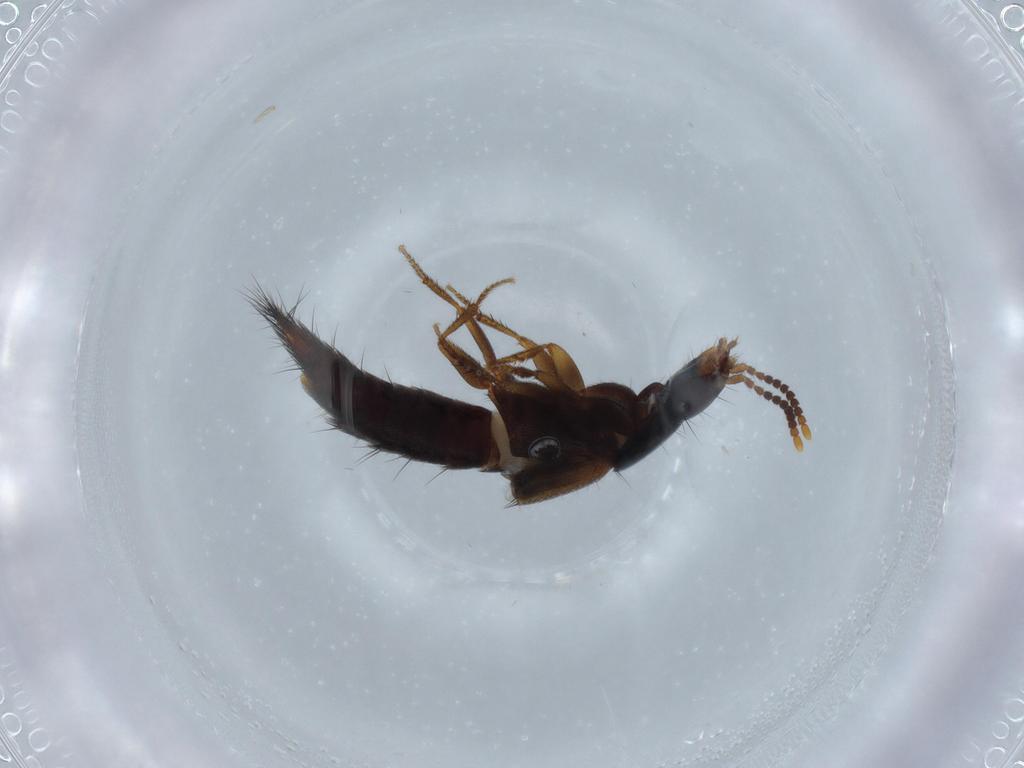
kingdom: Animalia
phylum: Arthropoda
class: Insecta
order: Coleoptera
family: Staphylinidae
